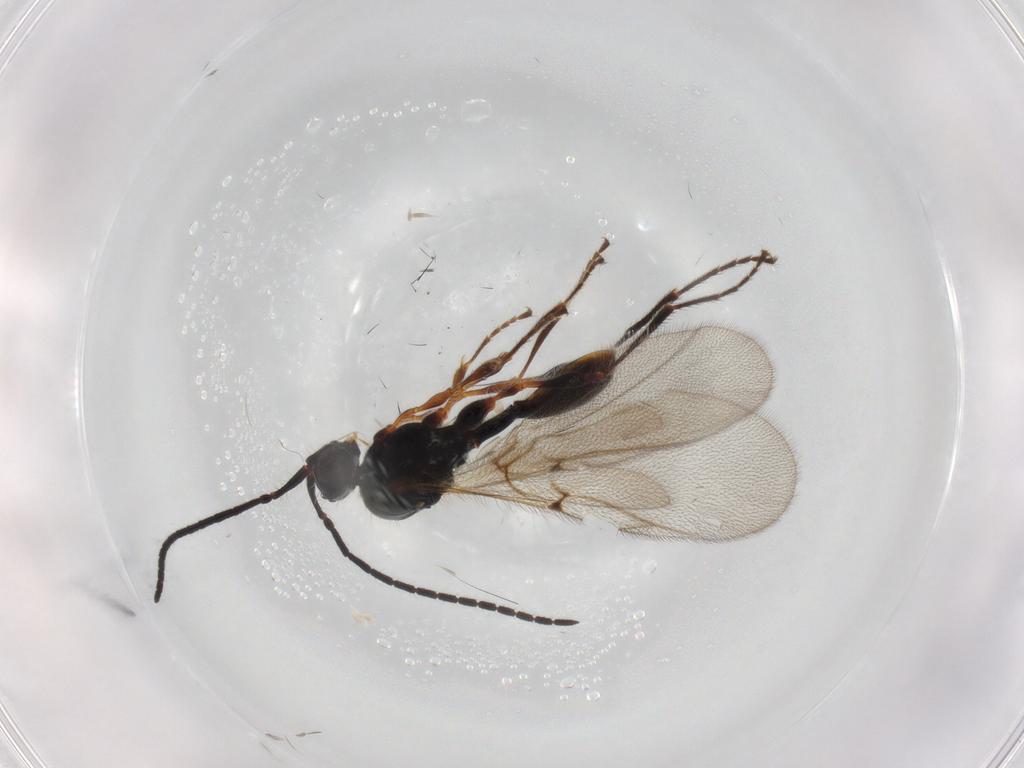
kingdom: Animalia
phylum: Arthropoda
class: Insecta
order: Hymenoptera
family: Diapriidae
